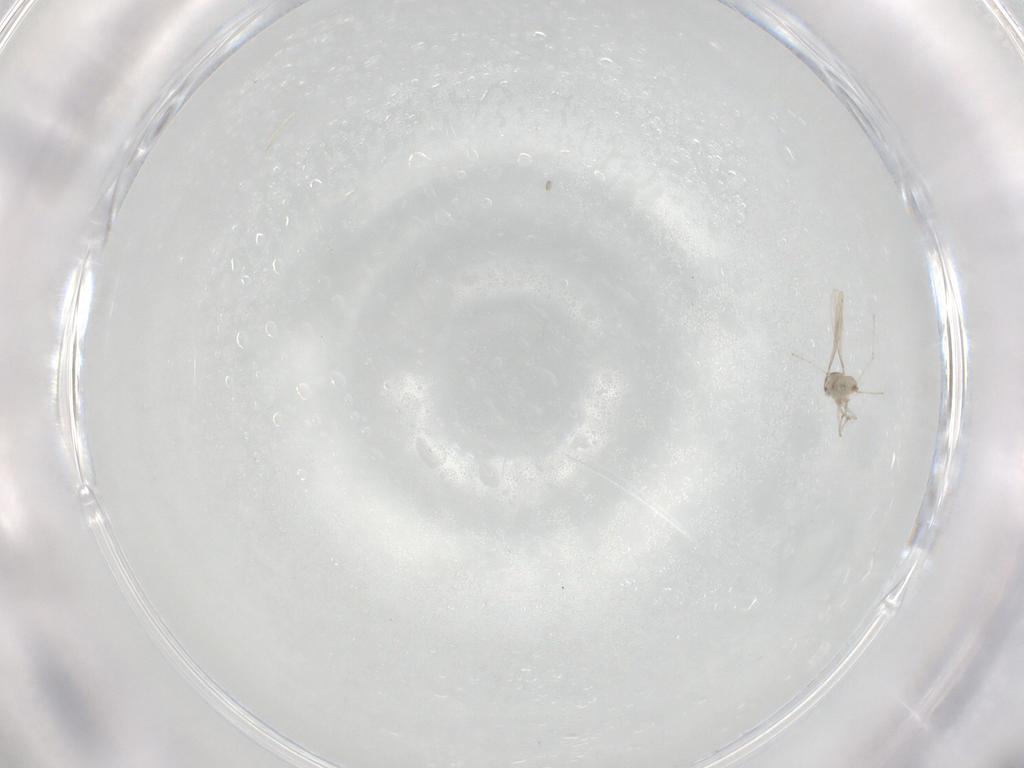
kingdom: Animalia
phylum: Arthropoda
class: Insecta
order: Diptera
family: Cecidomyiidae
